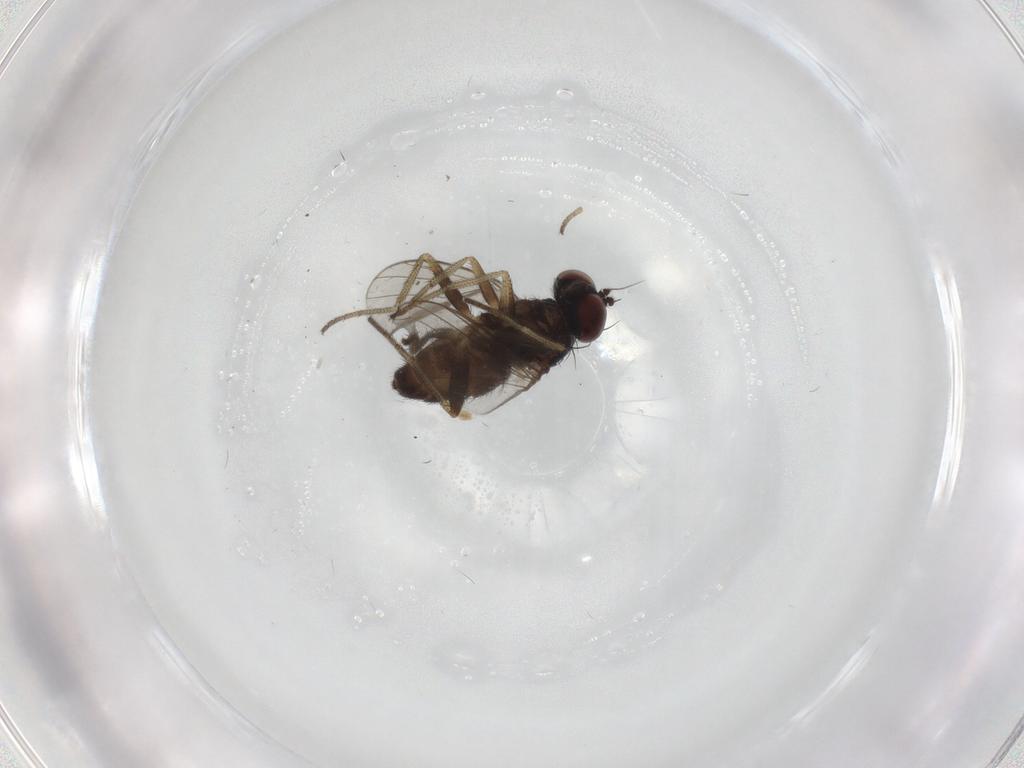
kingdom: Animalia
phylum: Arthropoda
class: Insecta
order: Diptera
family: Dolichopodidae
